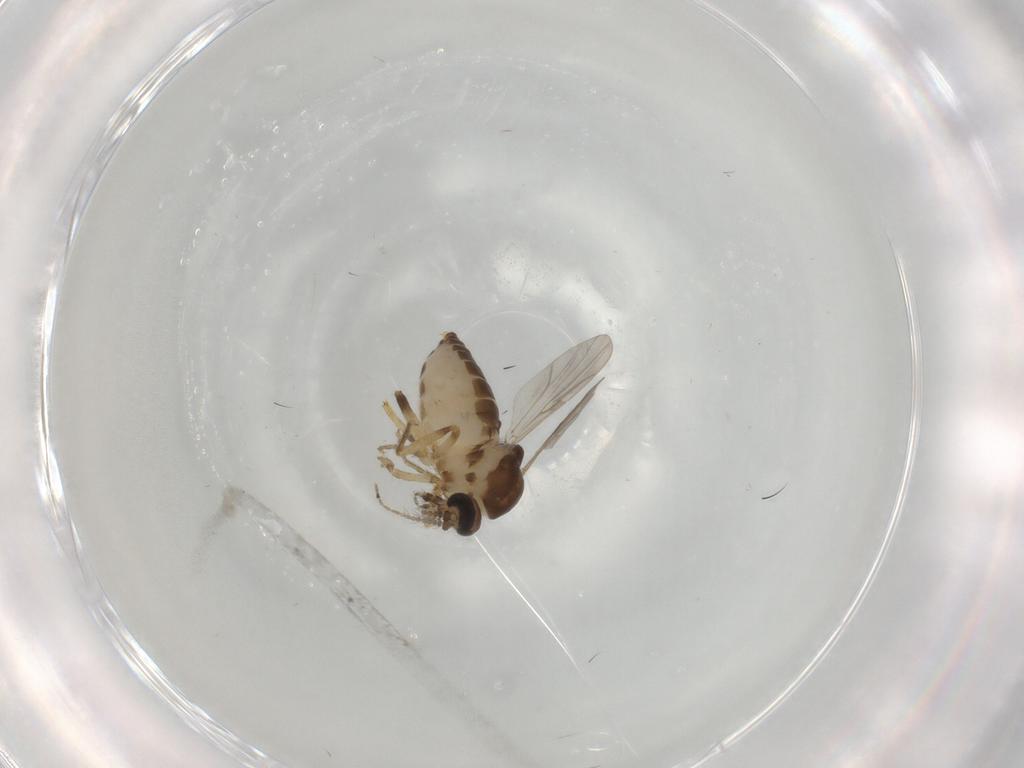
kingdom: Animalia
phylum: Arthropoda
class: Insecta
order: Diptera
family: Ceratopogonidae
